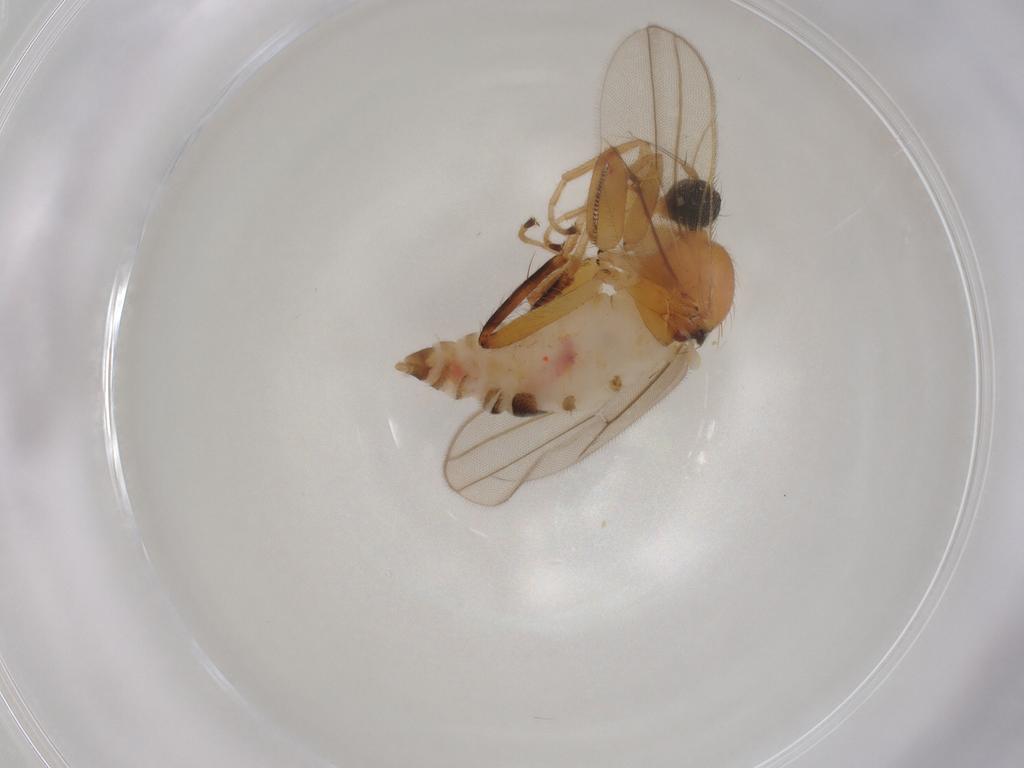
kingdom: Animalia
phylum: Arthropoda
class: Insecta
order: Diptera
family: Hybotidae
